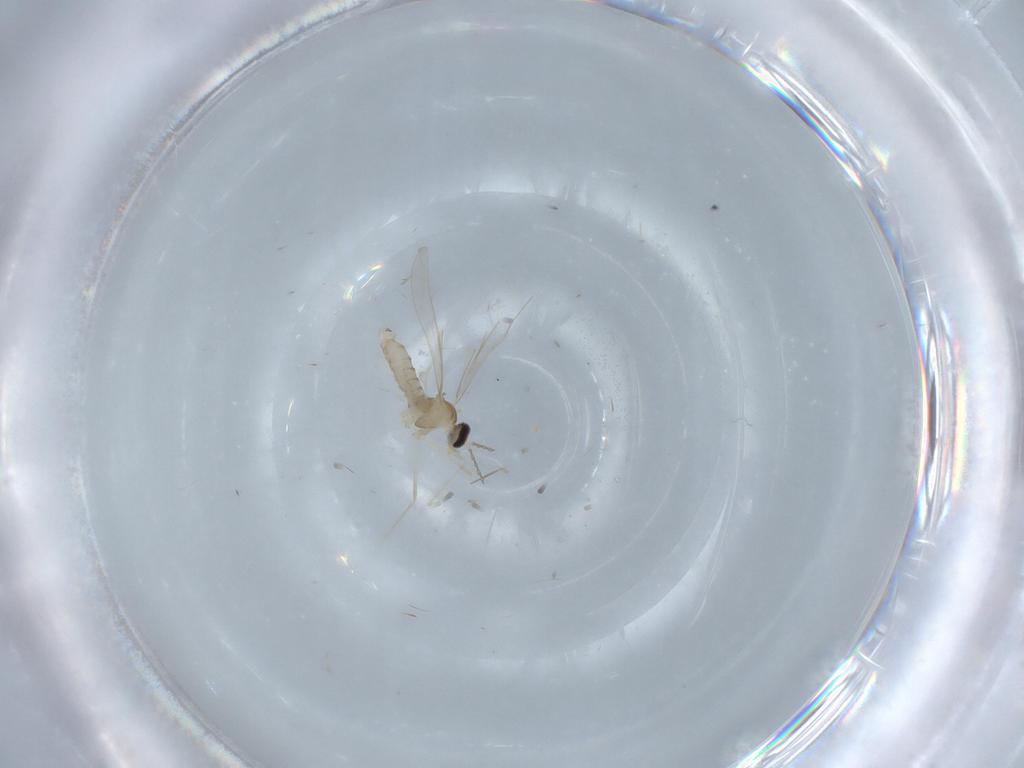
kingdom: Animalia
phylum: Arthropoda
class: Insecta
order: Diptera
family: Cecidomyiidae
